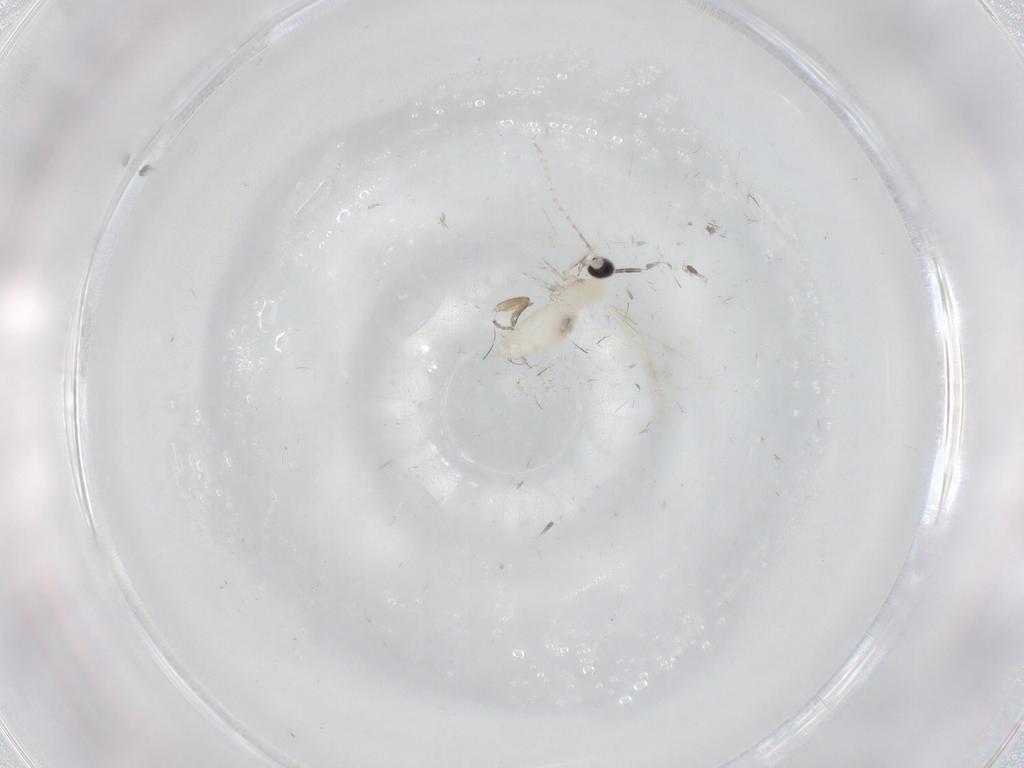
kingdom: Animalia
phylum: Arthropoda
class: Insecta
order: Diptera
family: Cecidomyiidae
